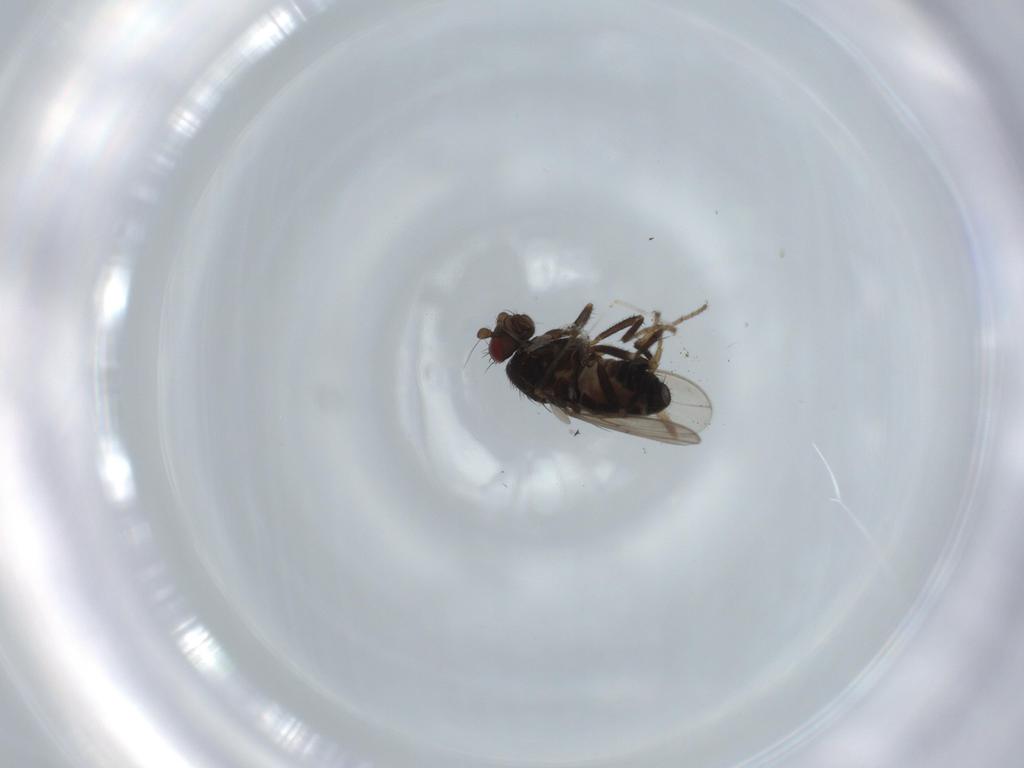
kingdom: Animalia
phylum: Arthropoda
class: Insecta
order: Diptera
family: Cecidomyiidae
